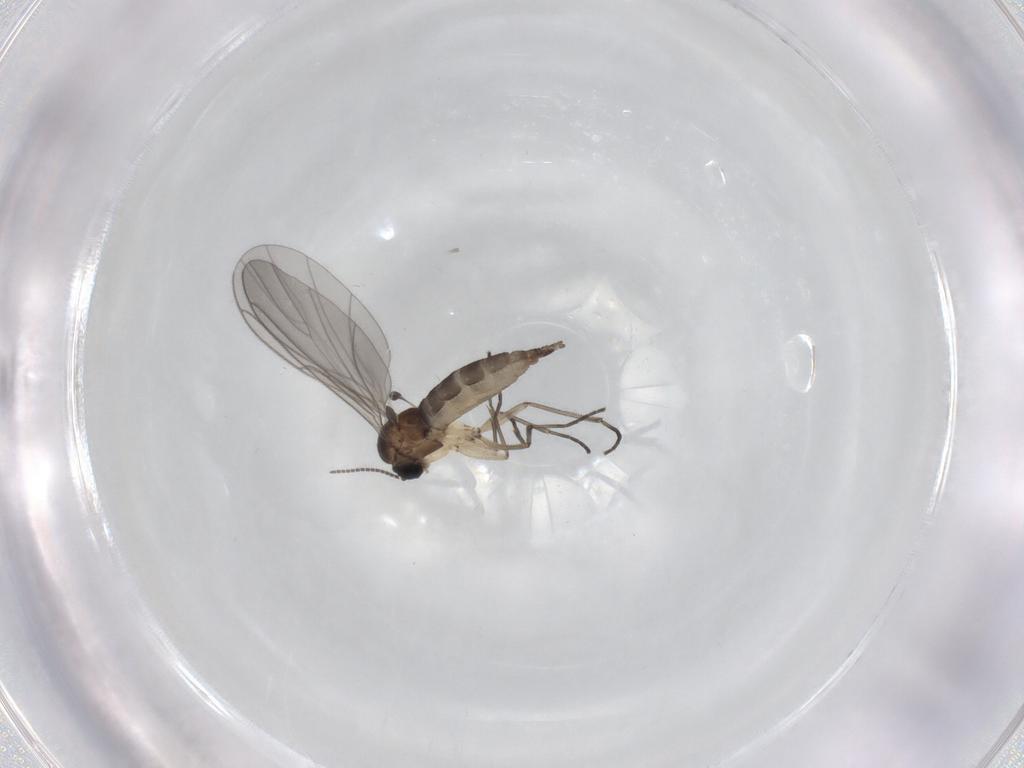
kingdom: Animalia
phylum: Arthropoda
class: Insecta
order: Diptera
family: Sciaridae
